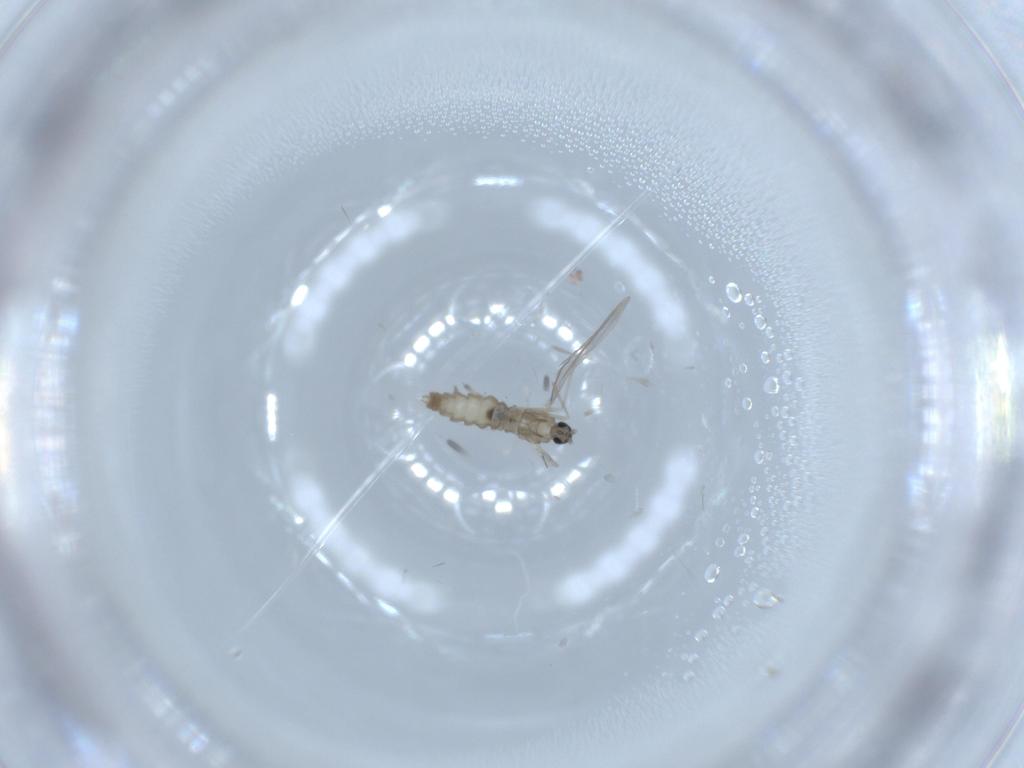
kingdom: Animalia
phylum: Arthropoda
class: Insecta
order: Diptera
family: Cecidomyiidae
